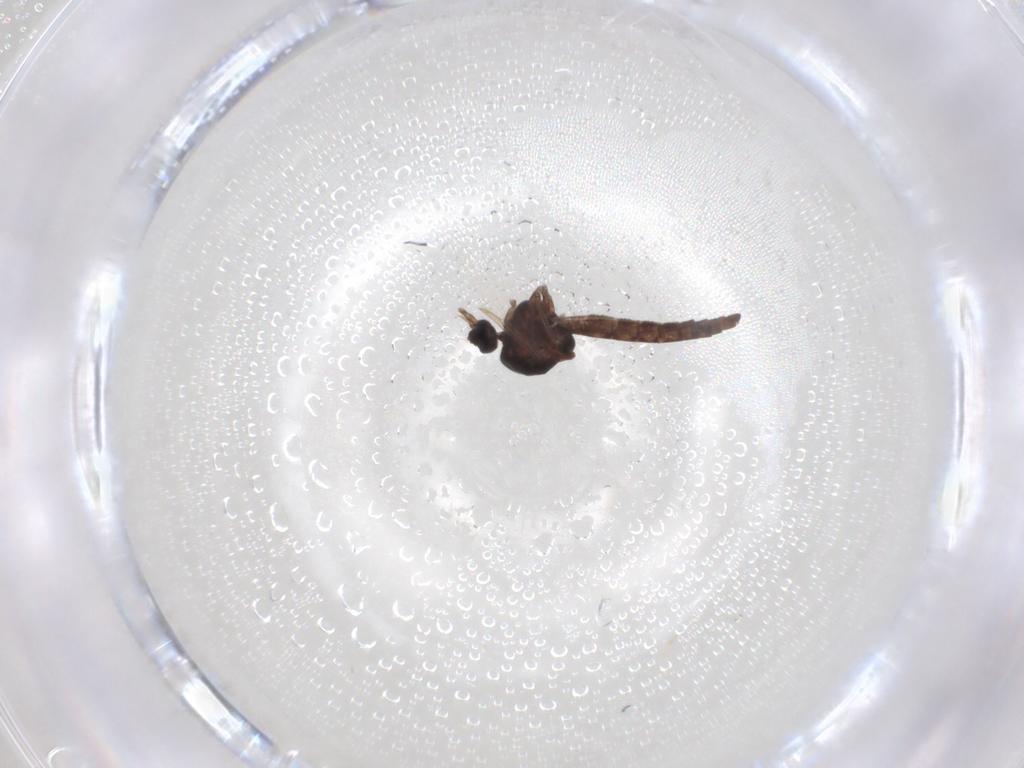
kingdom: Animalia
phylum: Arthropoda
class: Insecta
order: Diptera
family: Ceratopogonidae
